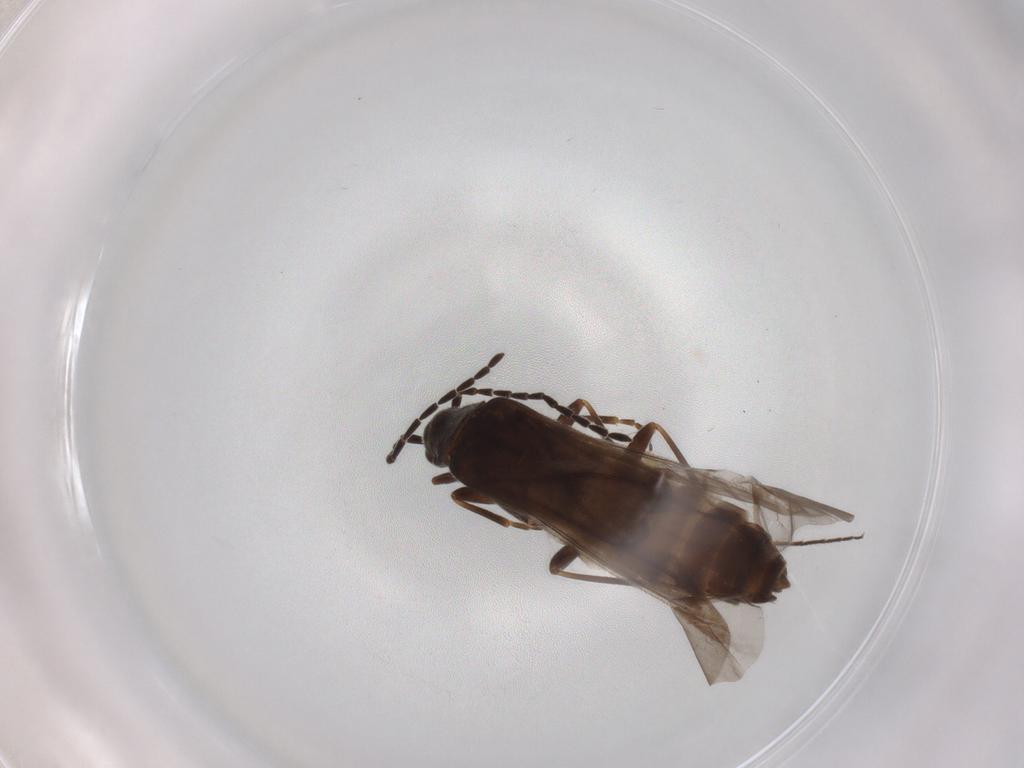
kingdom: Animalia
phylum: Arthropoda
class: Insecta
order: Coleoptera
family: Cantharidae
